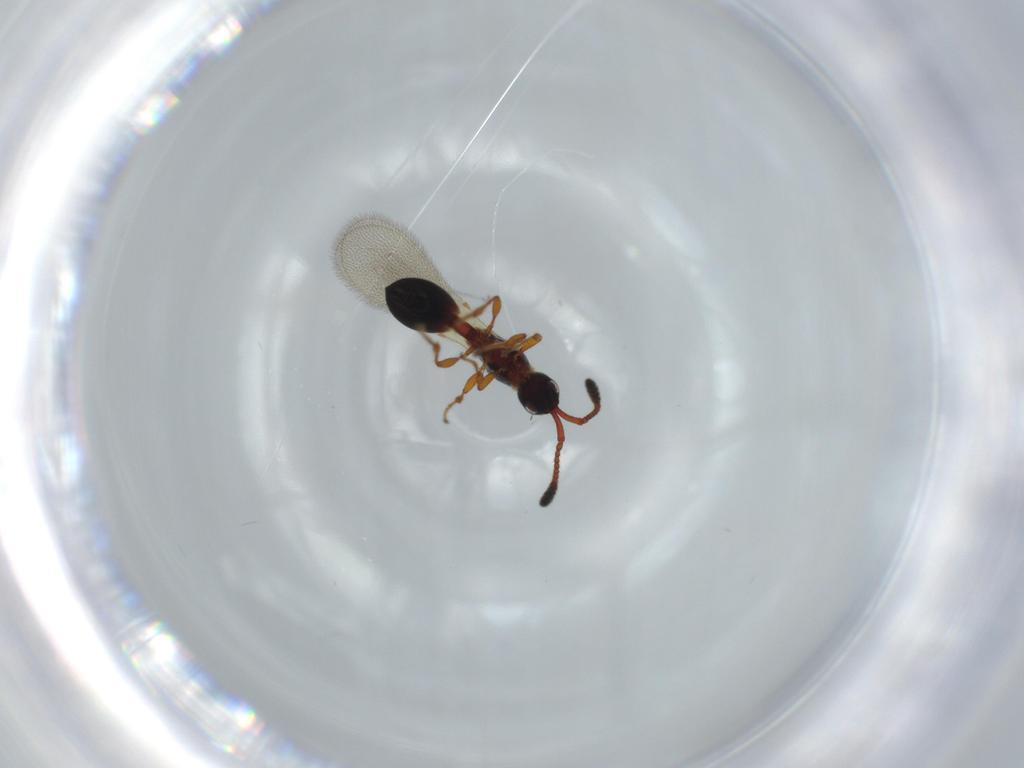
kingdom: Animalia
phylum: Arthropoda
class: Insecta
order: Hymenoptera
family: Diapriidae
